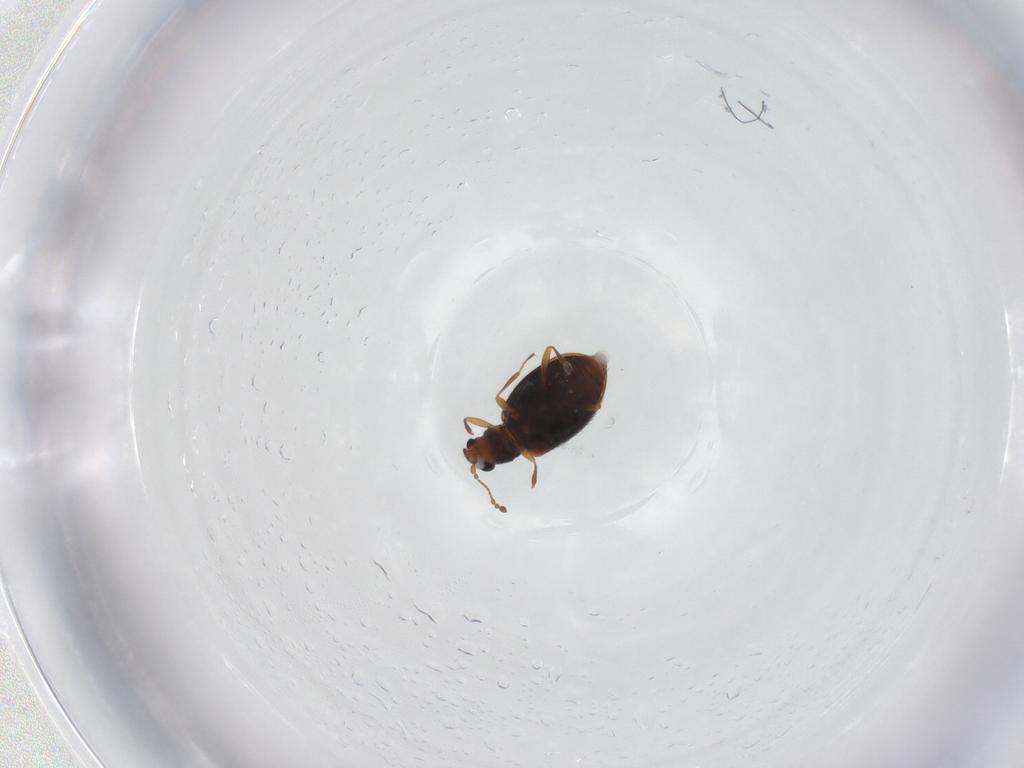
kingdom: Animalia
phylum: Arthropoda
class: Insecta
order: Coleoptera
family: Latridiidae
